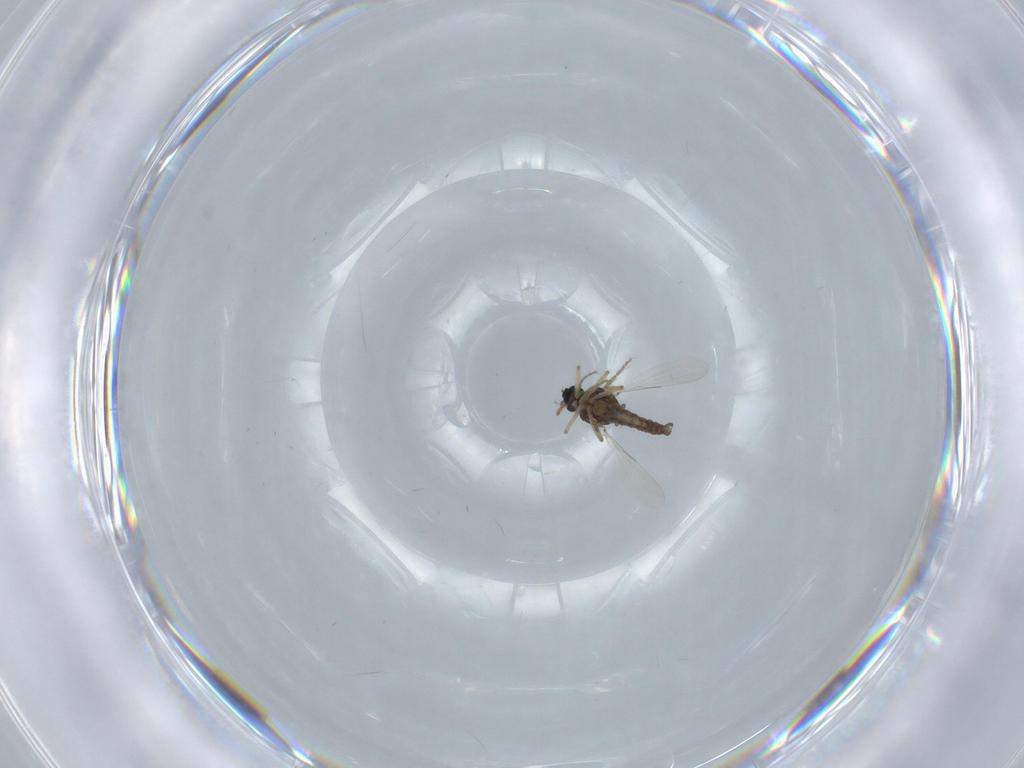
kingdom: Animalia
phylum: Arthropoda
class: Insecta
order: Diptera
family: Ceratopogonidae
